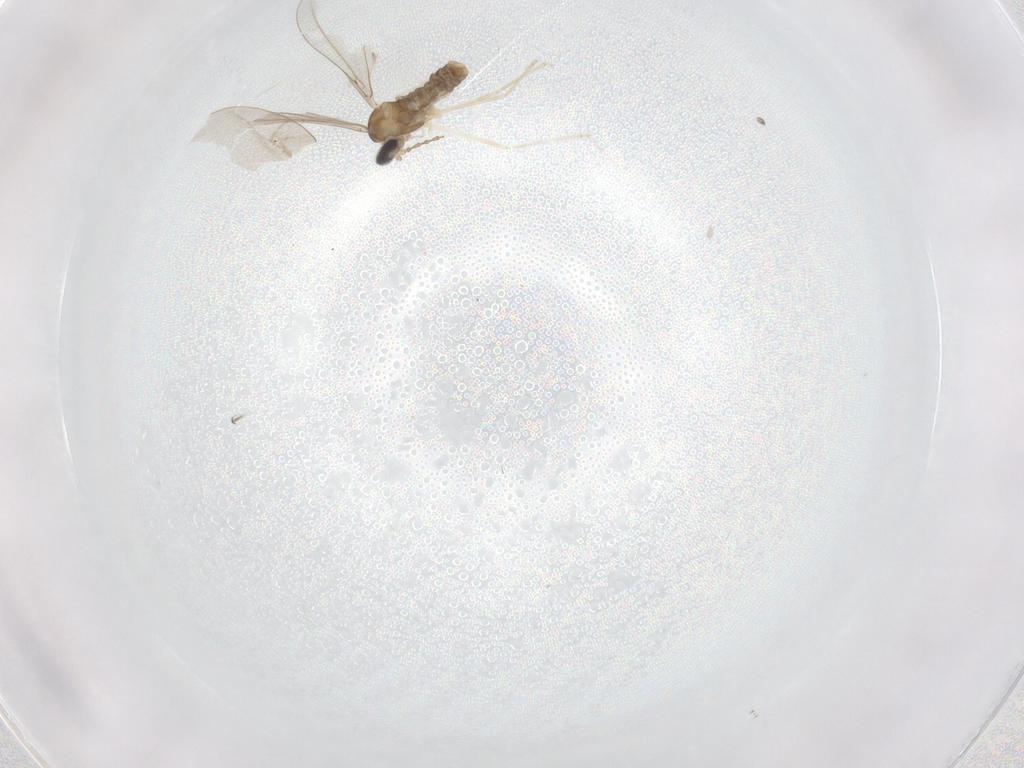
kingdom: Animalia
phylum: Arthropoda
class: Insecta
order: Diptera
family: Cecidomyiidae
